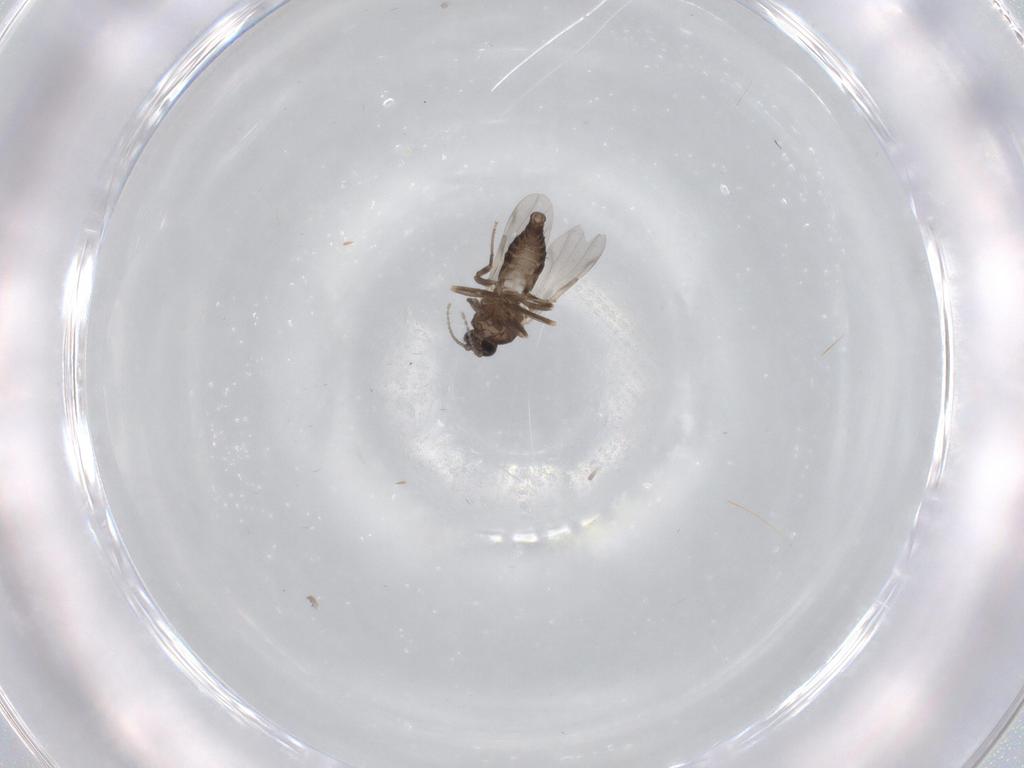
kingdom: Animalia
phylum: Arthropoda
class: Insecta
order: Diptera
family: Ceratopogonidae
